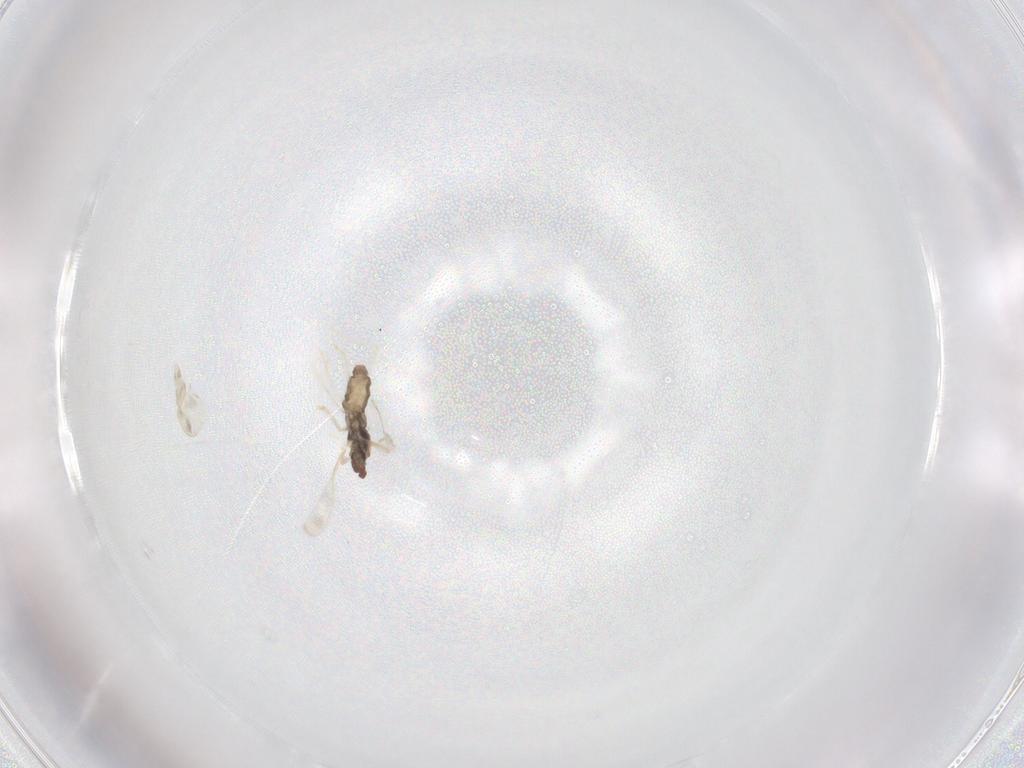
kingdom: Animalia
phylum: Arthropoda
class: Insecta
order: Diptera
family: Cecidomyiidae
